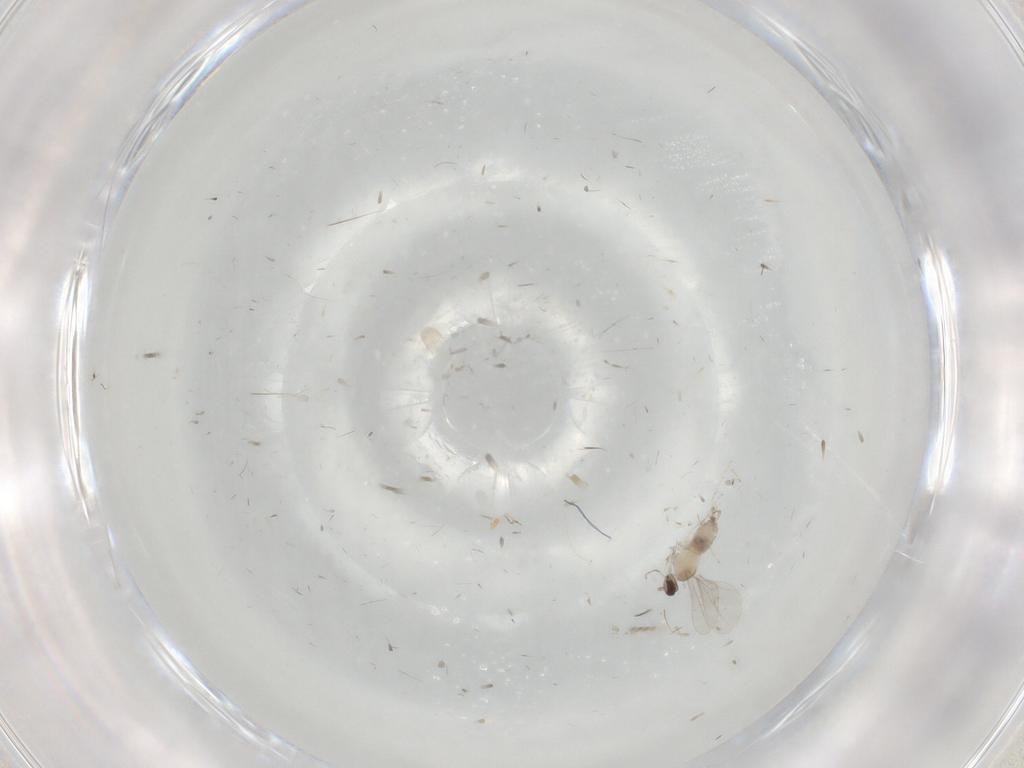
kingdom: Animalia
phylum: Arthropoda
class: Insecta
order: Diptera
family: Cecidomyiidae
